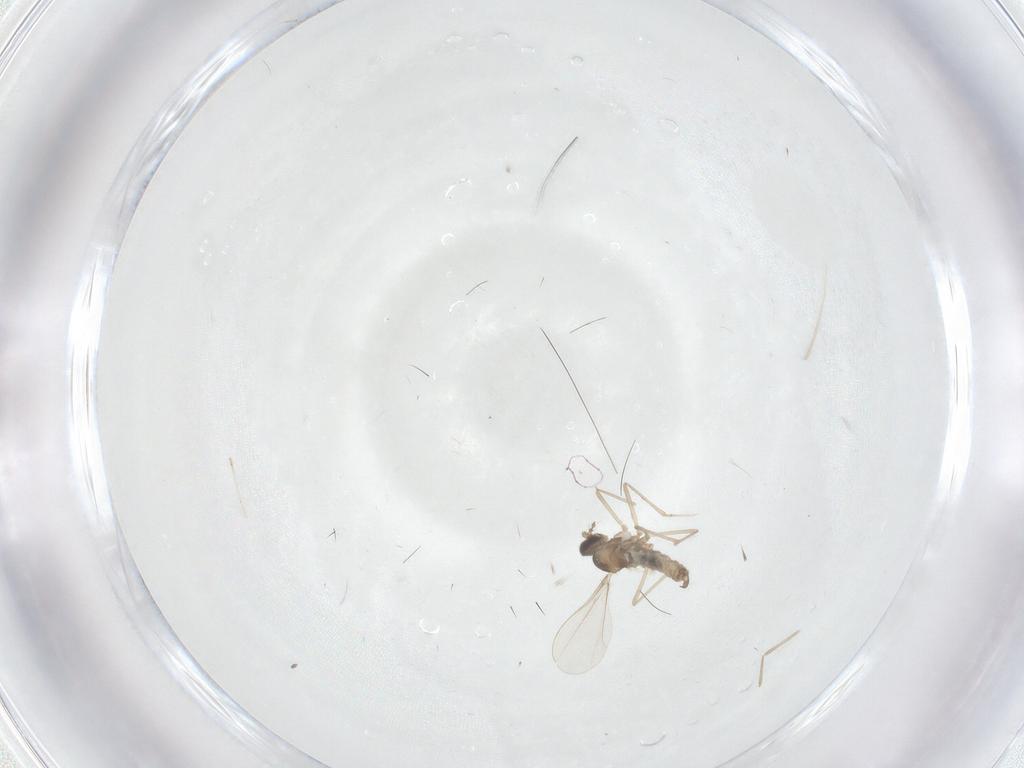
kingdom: Animalia
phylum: Arthropoda
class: Insecta
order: Diptera
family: Cecidomyiidae
